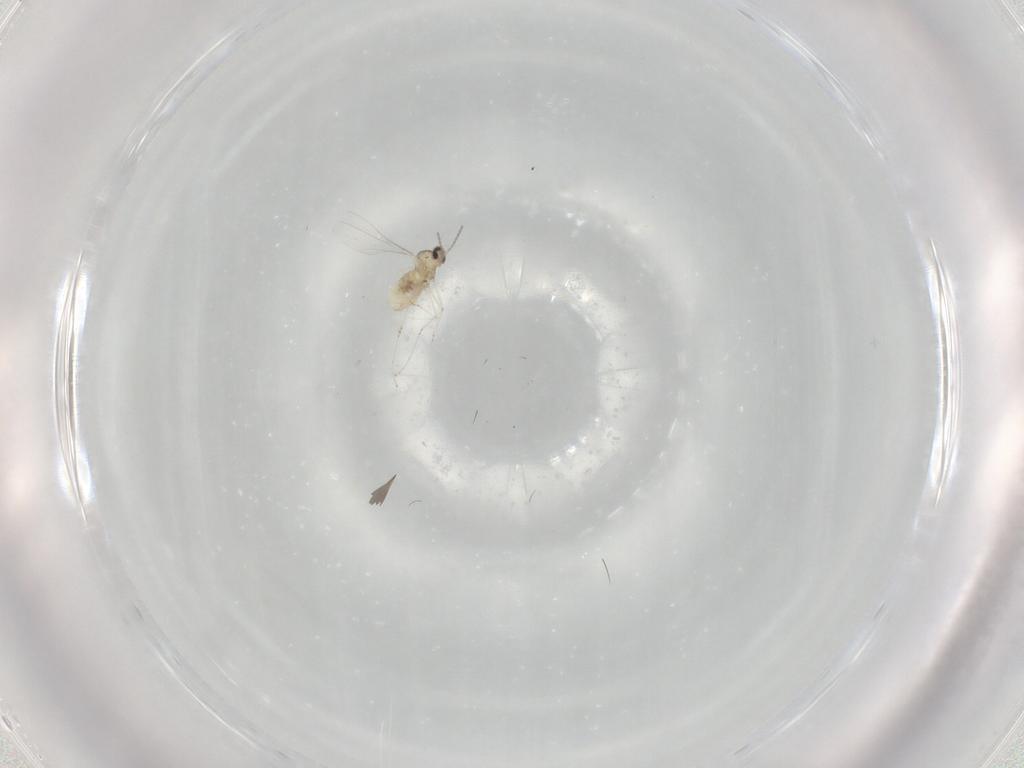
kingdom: Animalia
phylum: Arthropoda
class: Insecta
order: Diptera
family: Cecidomyiidae
